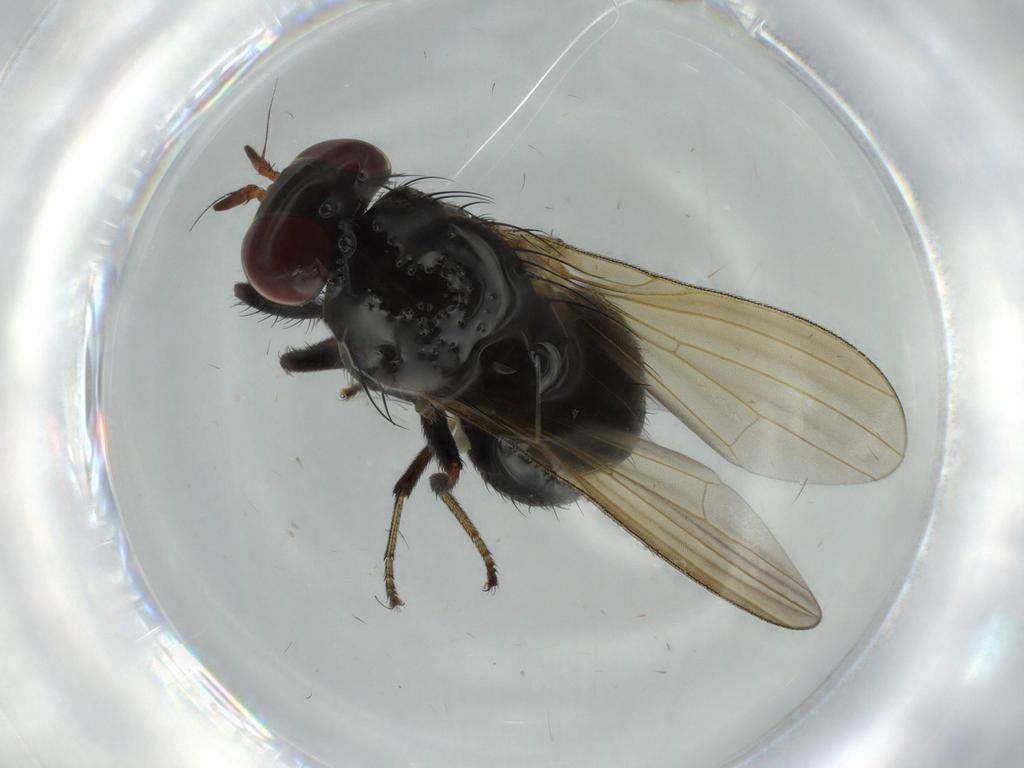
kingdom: Animalia
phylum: Arthropoda
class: Insecta
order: Diptera
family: Lauxaniidae
